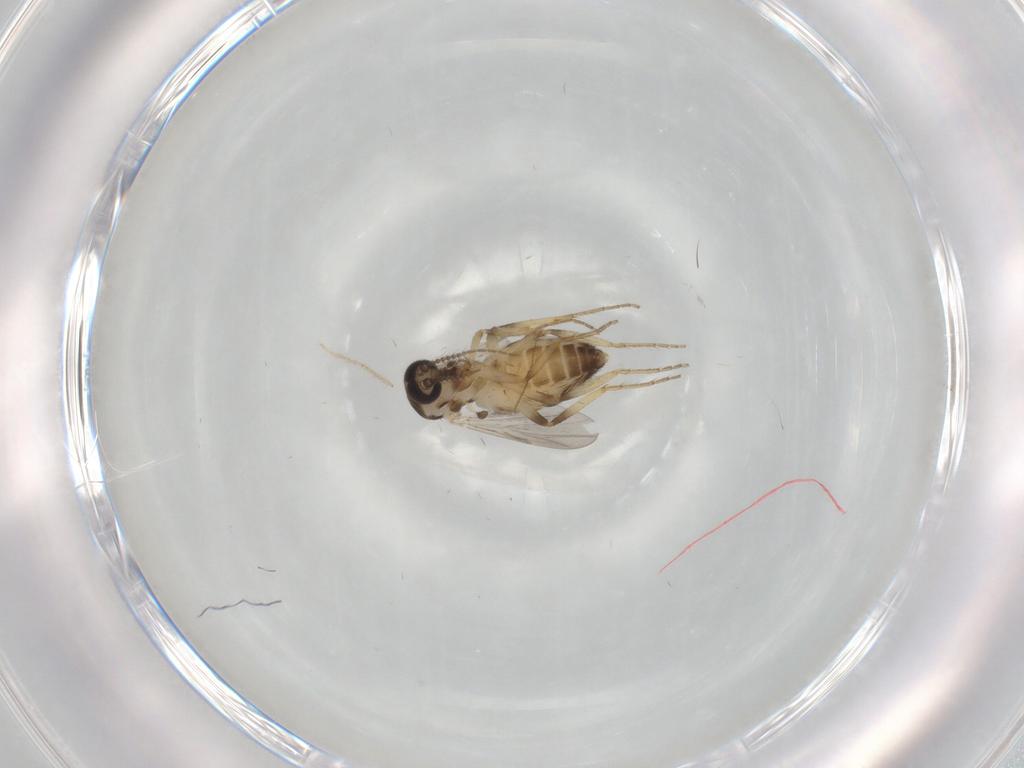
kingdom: Animalia
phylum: Arthropoda
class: Insecta
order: Diptera
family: Ceratopogonidae
